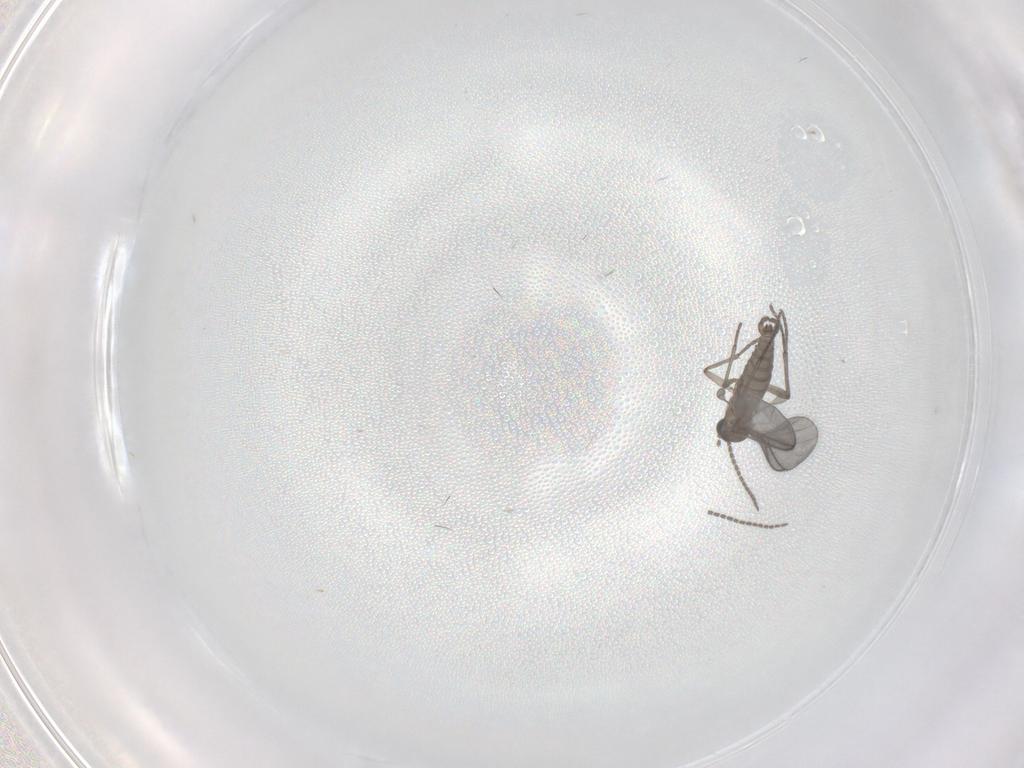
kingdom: Animalia
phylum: Arthropoda
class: Insecta
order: Diptera
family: Sciaridae
